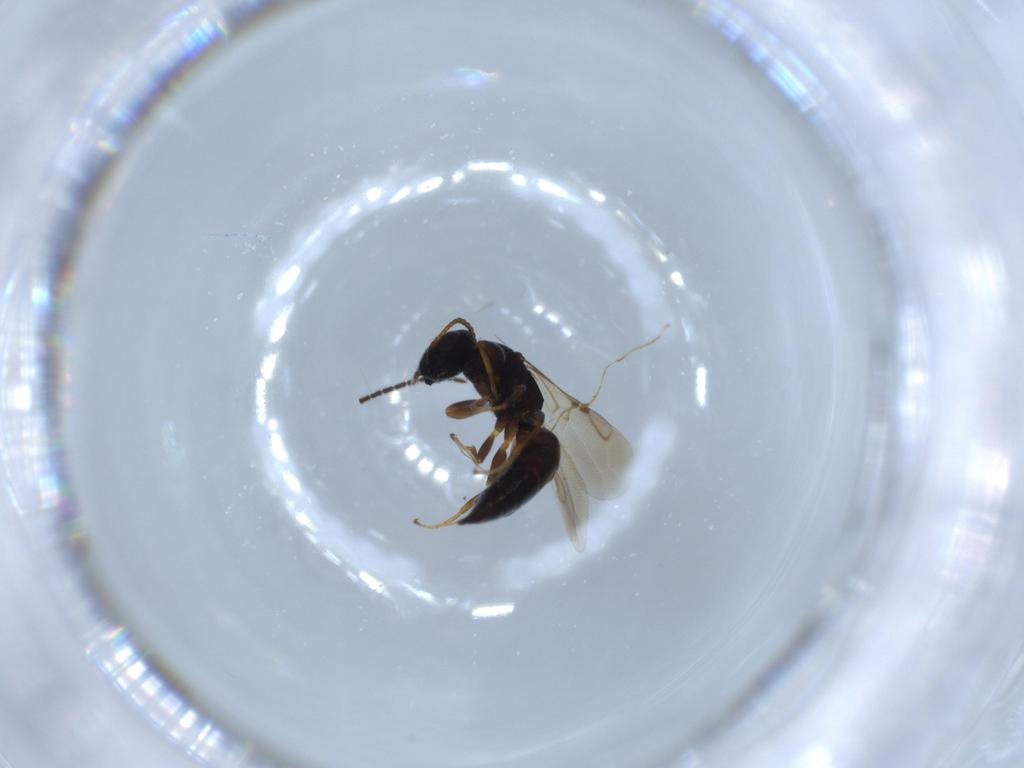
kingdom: Animalia
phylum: Arthropoda
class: Insecta
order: Hymenoptera
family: Bethylidae
